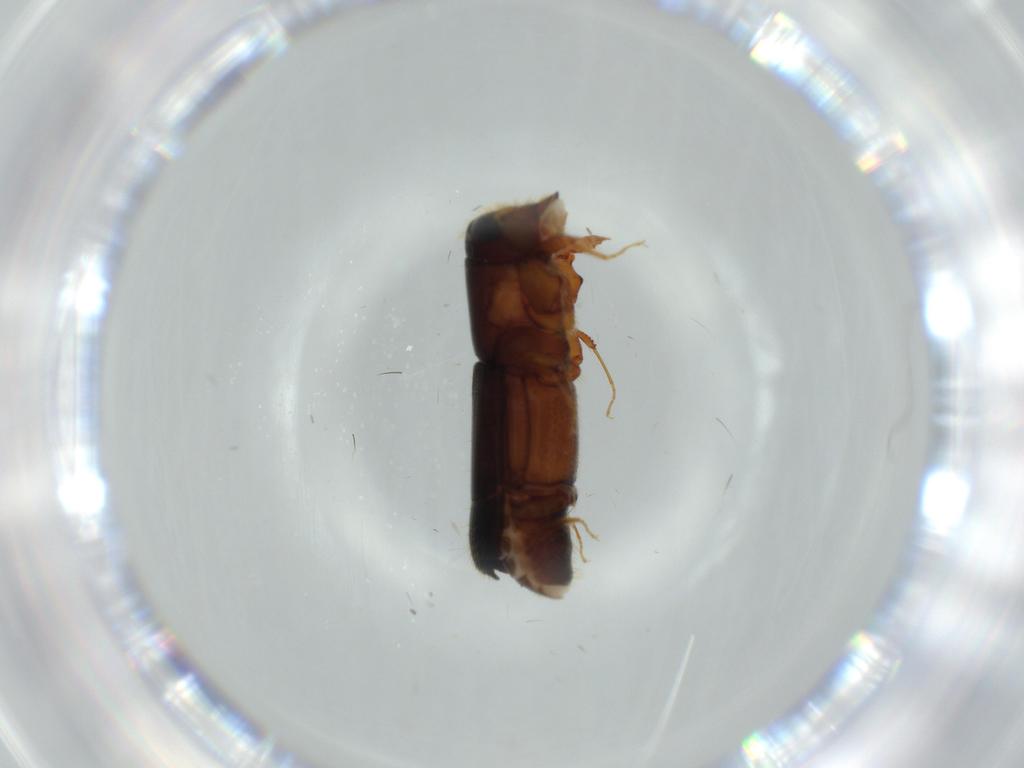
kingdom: Animalia
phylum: Arthropoda
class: Insecta
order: Coleoptera
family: Curculionidae
